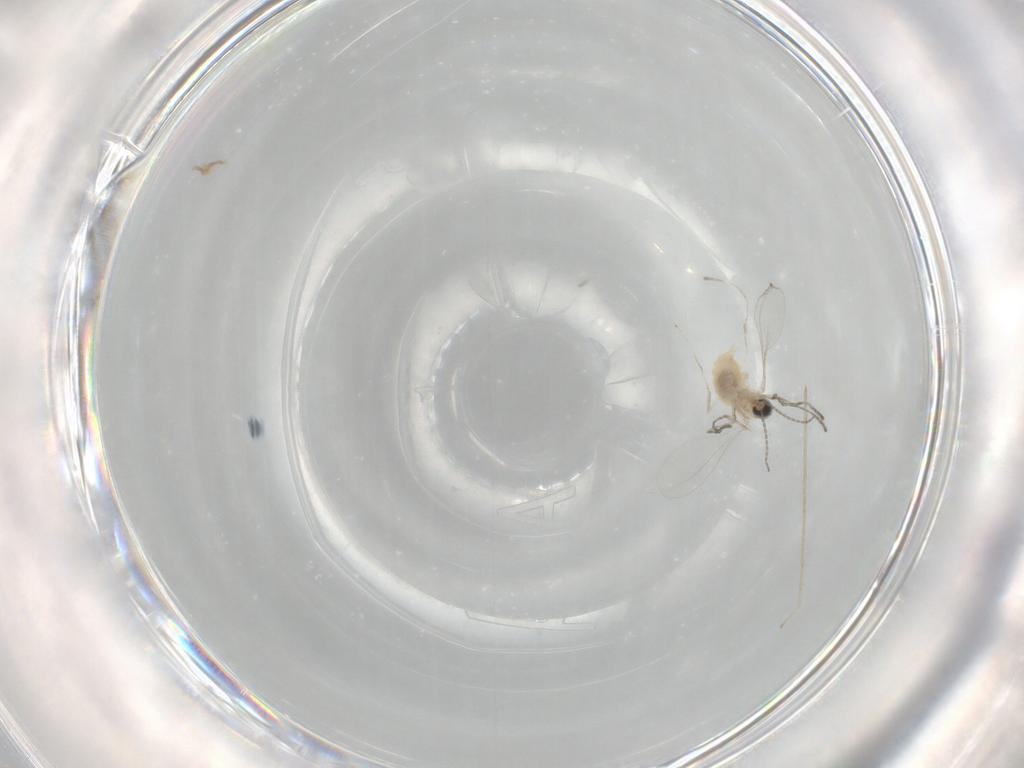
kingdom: Animalia
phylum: Arthropoda
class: Insecta
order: Diptera
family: Cecidomyiidae
